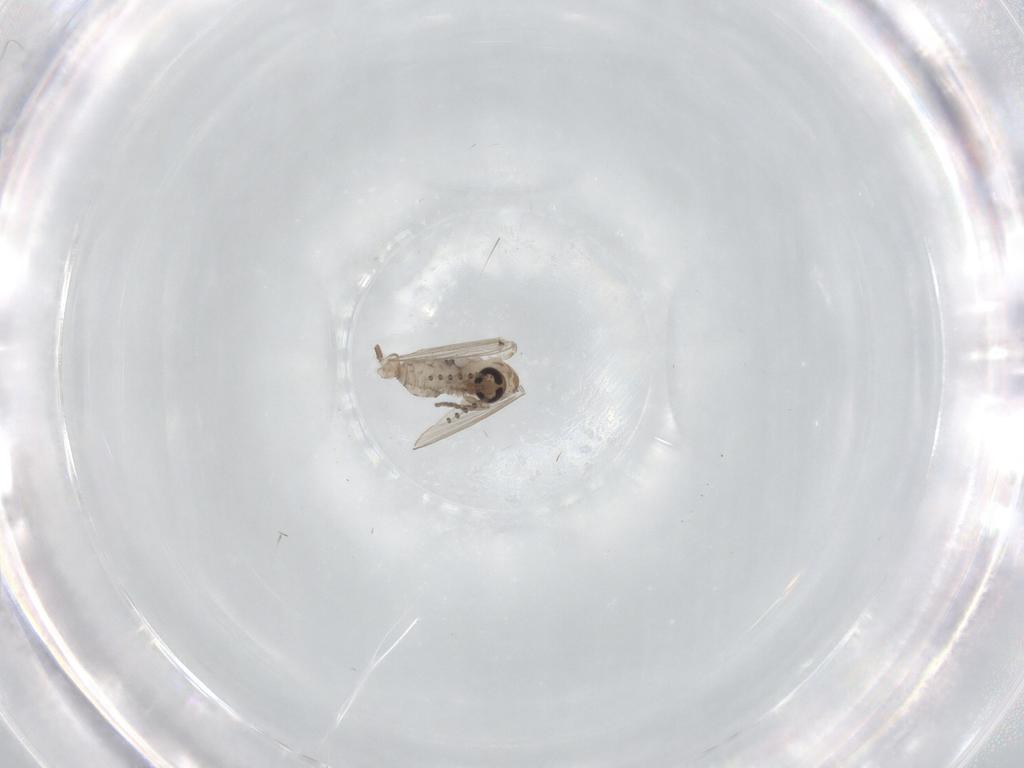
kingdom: Animalia
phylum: Arthropoda
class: Insecta
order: Diptera
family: Psychodidae
